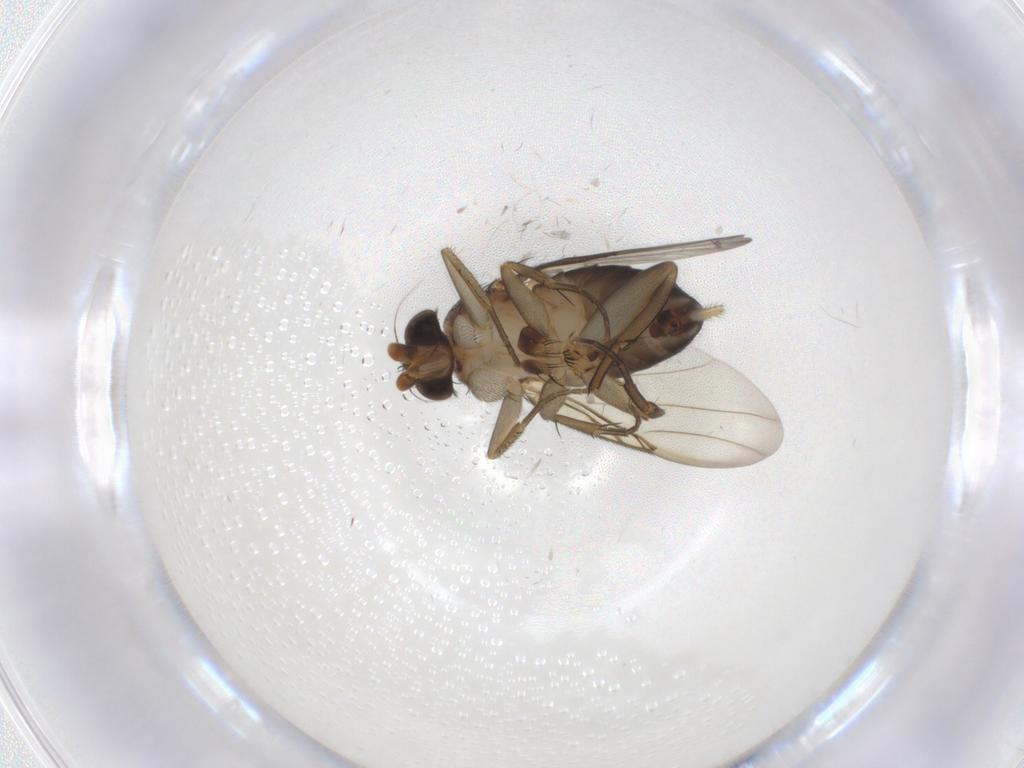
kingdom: Animalia
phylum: Arthropoda
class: Insecta
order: Diptera
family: Phoridae
